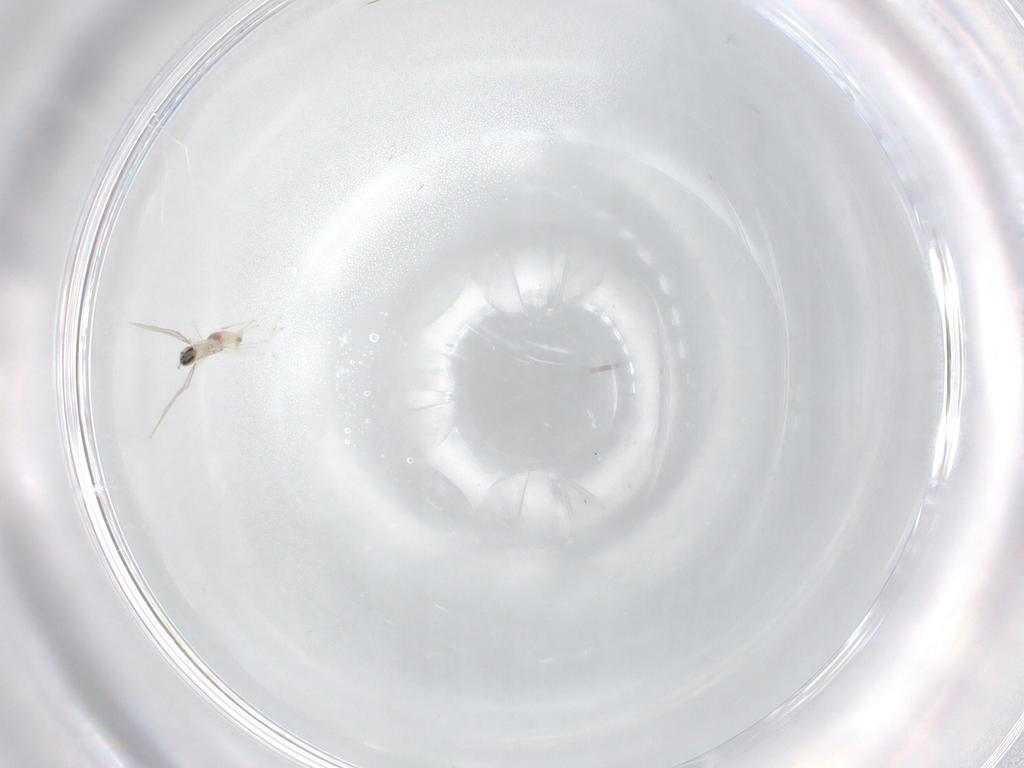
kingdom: Animalia
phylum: Arthropoda
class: Insecta
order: Diptera
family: Cecidomyiidae
